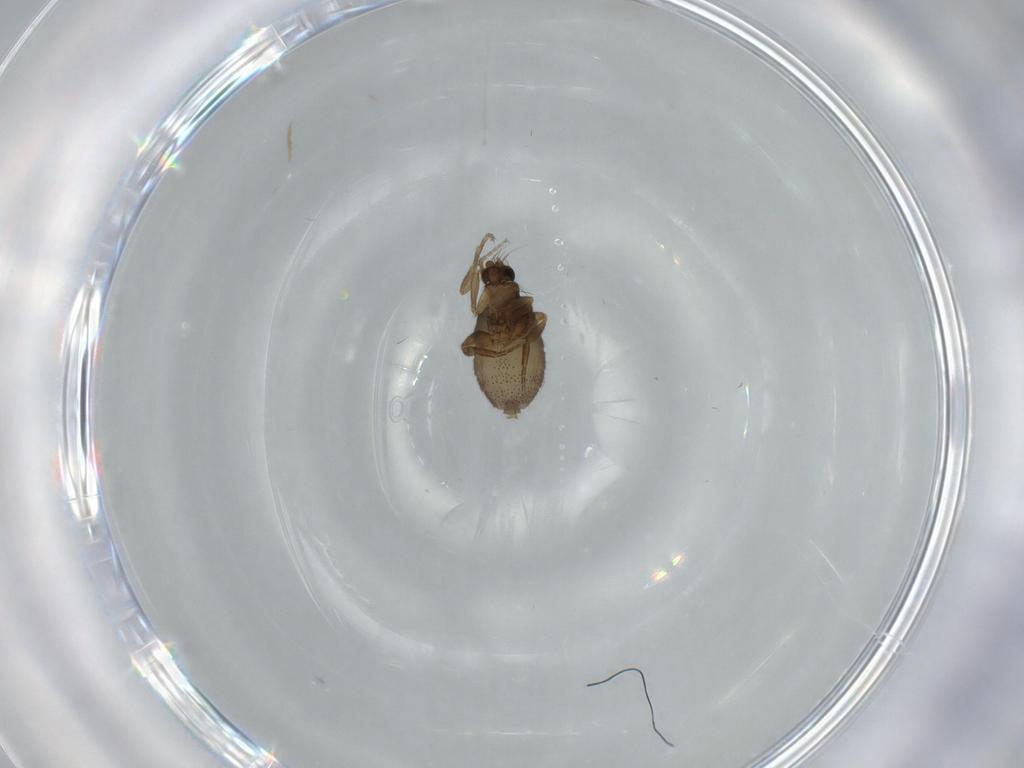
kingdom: Animalia
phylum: Arthropoda
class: Insecta
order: Diptera
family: Phoridae
